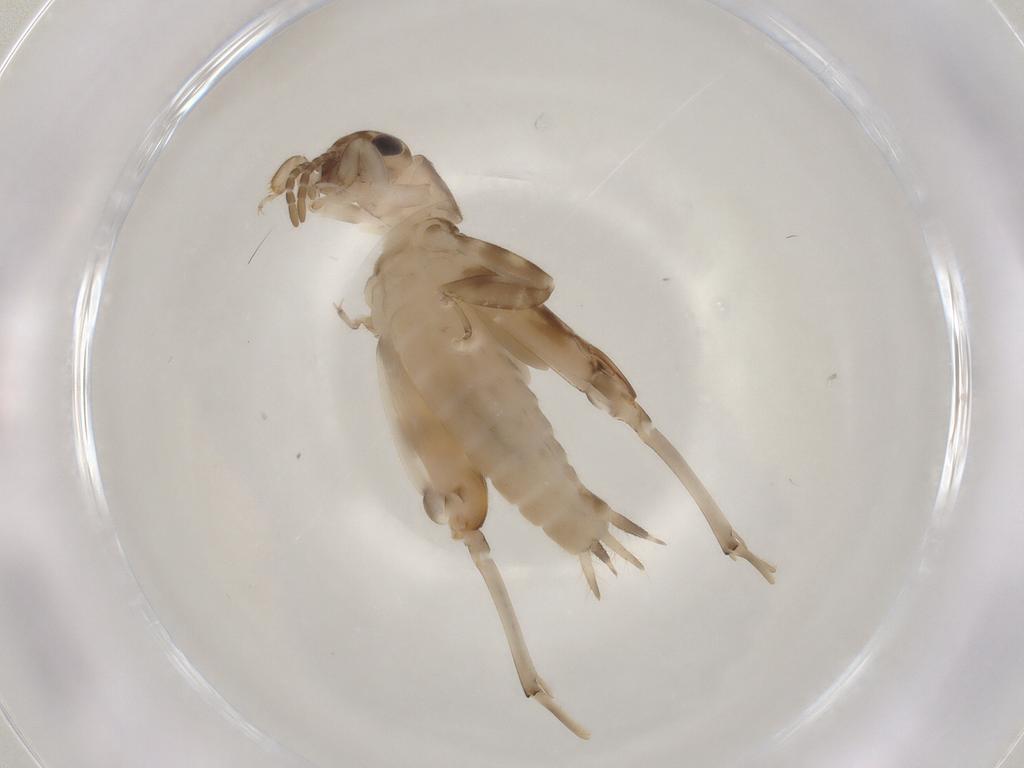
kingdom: Animalia
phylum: Arthropoda
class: Insecta
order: Orthoptera
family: Tridactylidae
